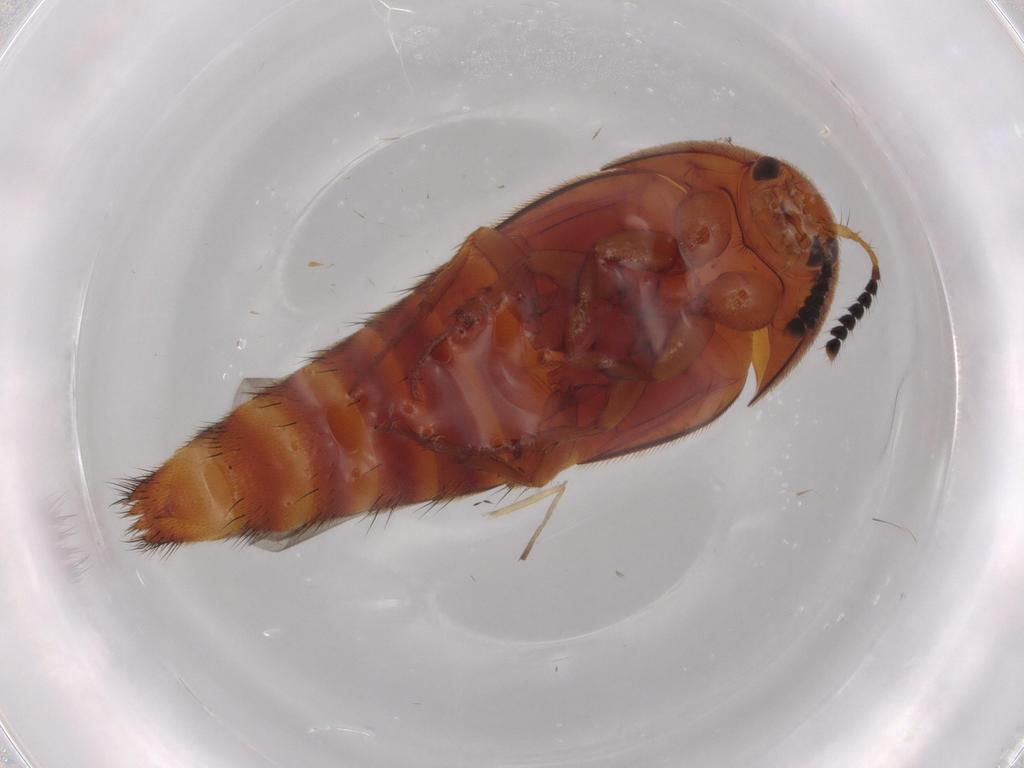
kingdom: Animalia
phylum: Arthropoda
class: Insecta
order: Coleoptera
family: Staphylinidae
